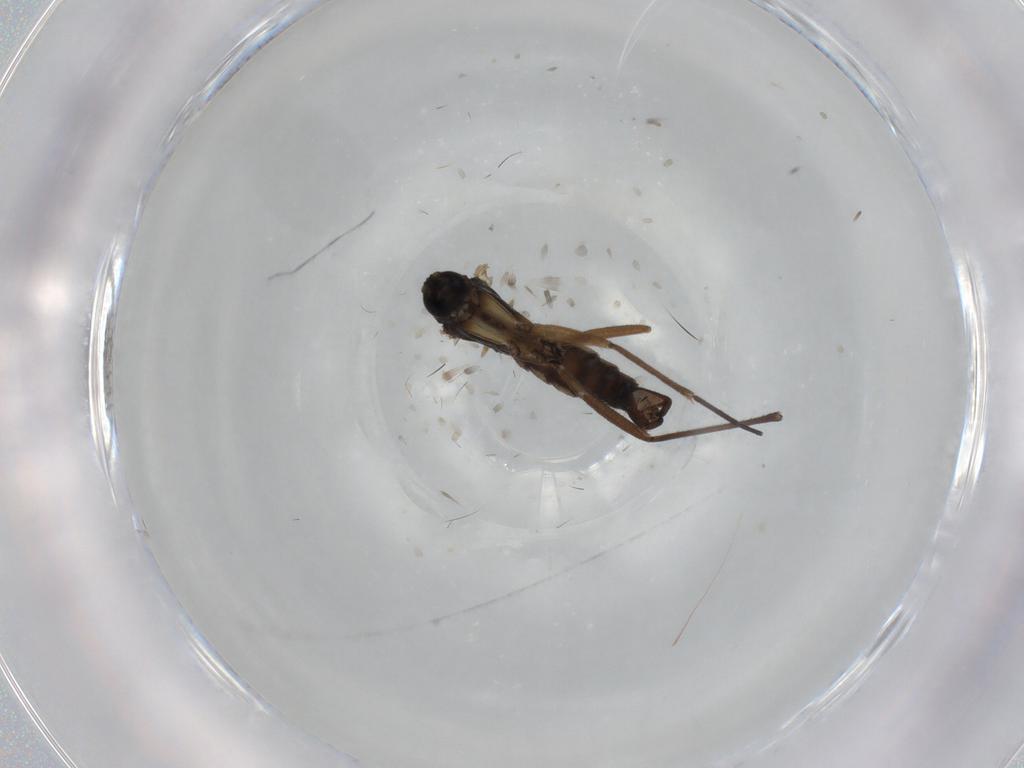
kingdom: Animalia
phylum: Arthropoda
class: Insecta
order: Diptera
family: Sciaridae
